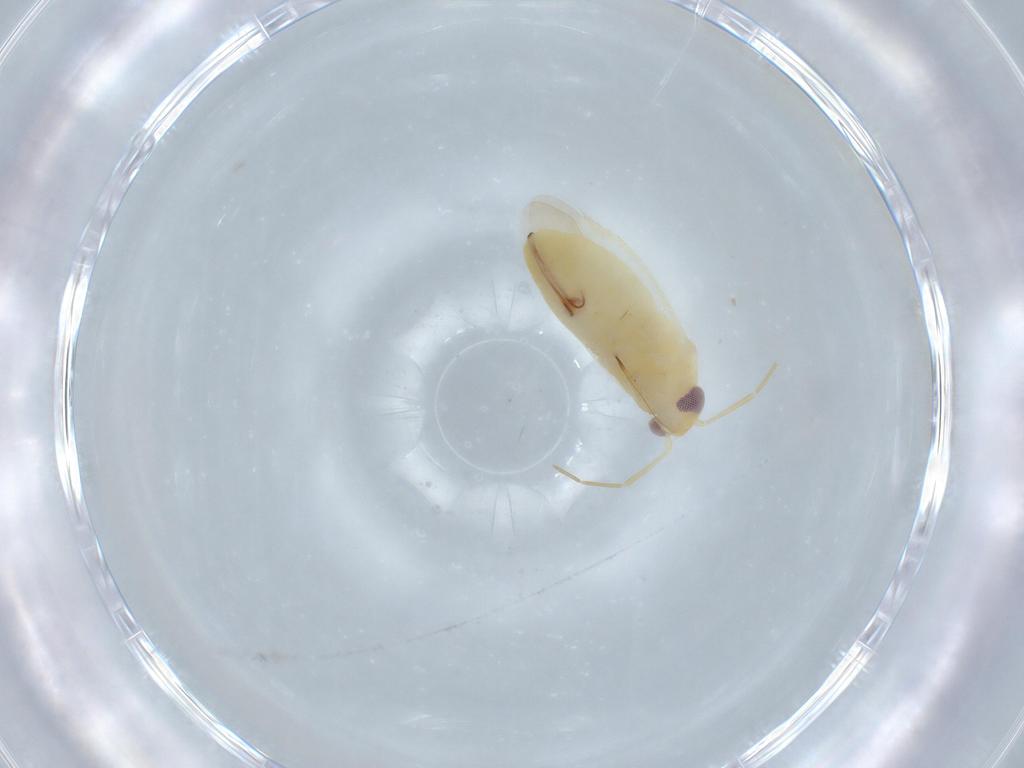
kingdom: Animalia
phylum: Arthropoda
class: Insecta
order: Hemiptera
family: Miridae
